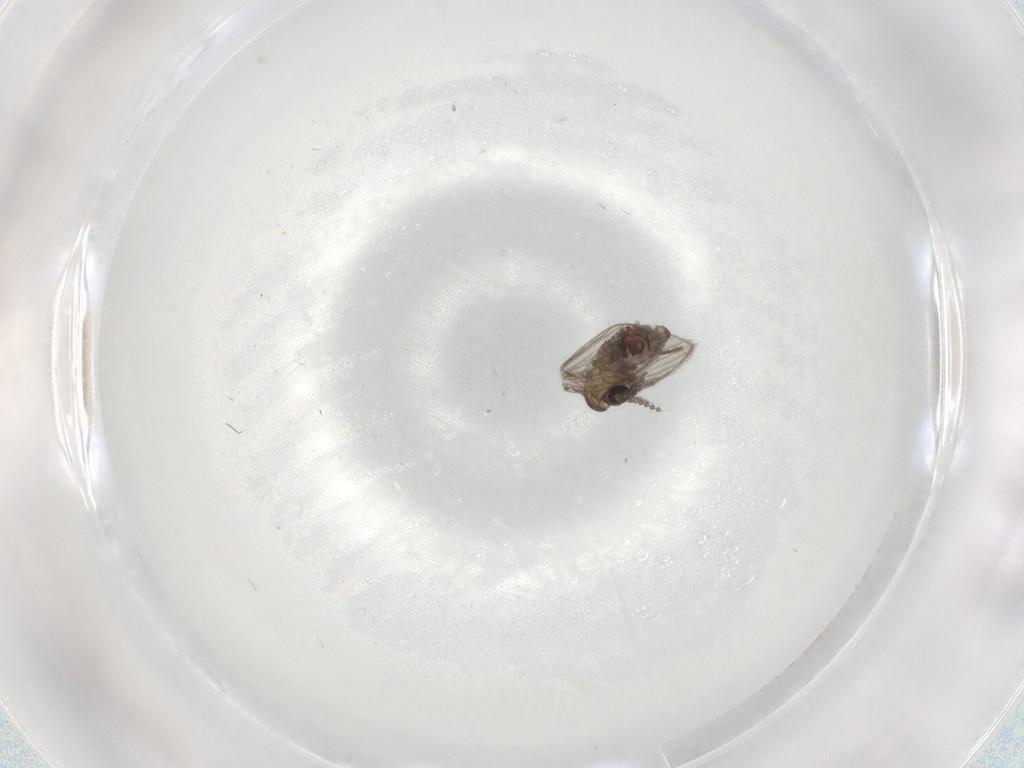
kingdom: Animalia
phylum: Arthropoda
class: Insecta
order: Diptera
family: Psychodidae
